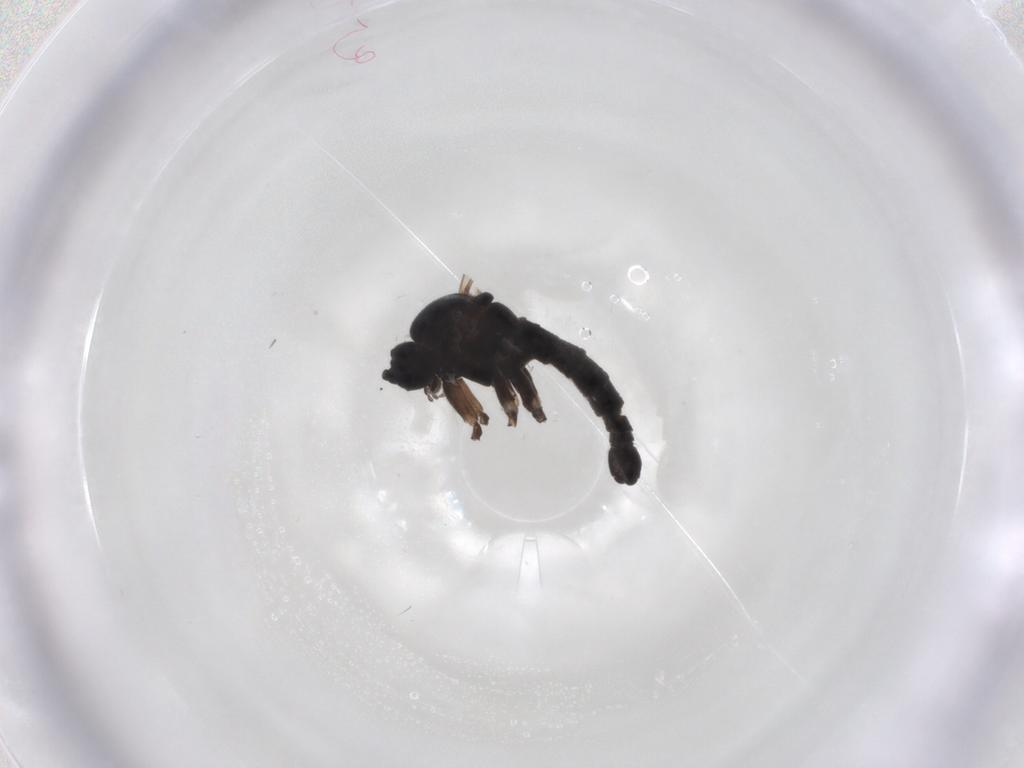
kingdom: Animalia
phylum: Arthropoda
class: Insecta
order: Diptera
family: Sciaridae
